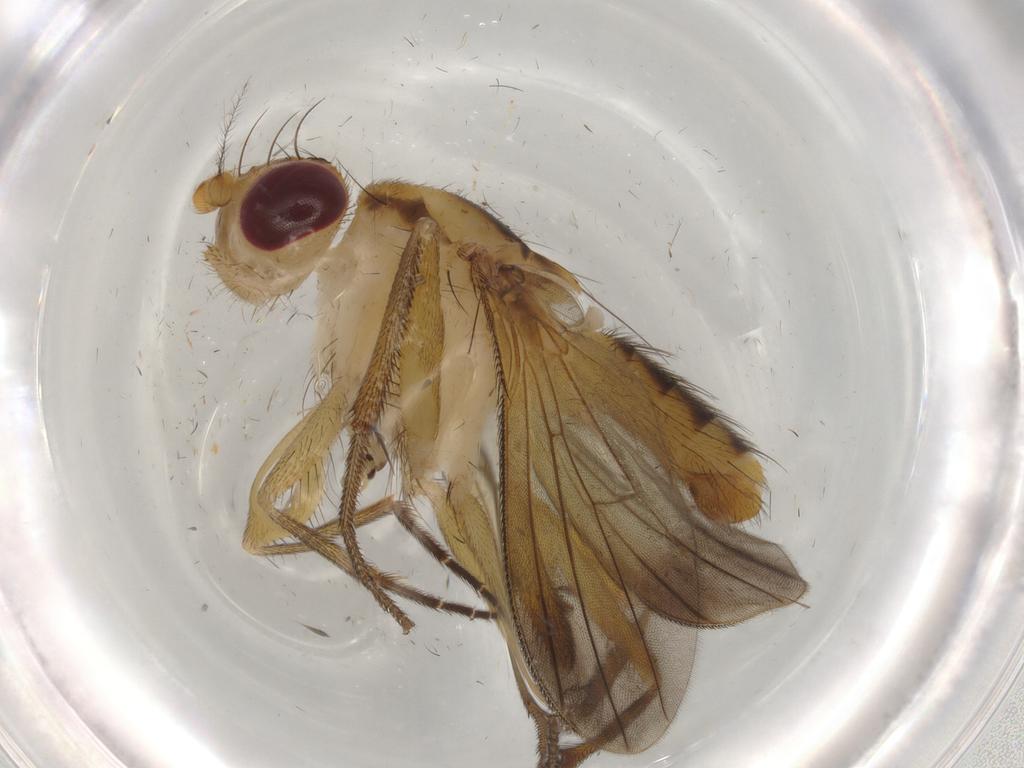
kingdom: Animalia
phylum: Arthropoda
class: Insecta
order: Diptera
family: Clusiidae
